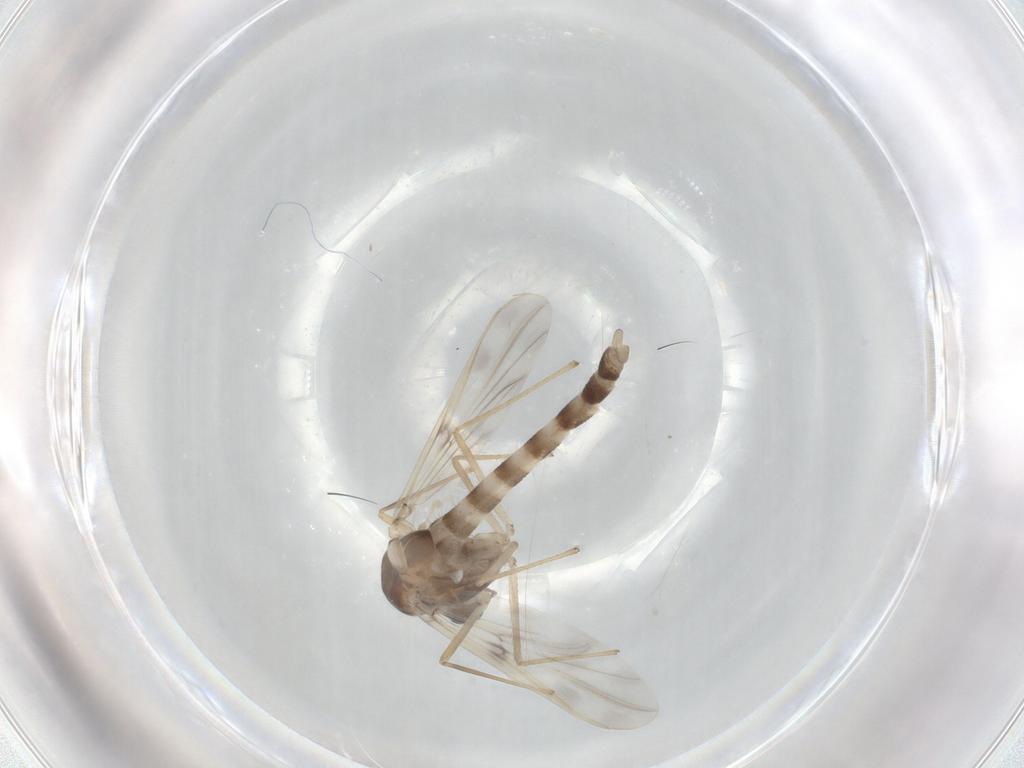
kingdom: Animalia
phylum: Arthropoda
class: Insecta
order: Diptera
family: Chironomidae
